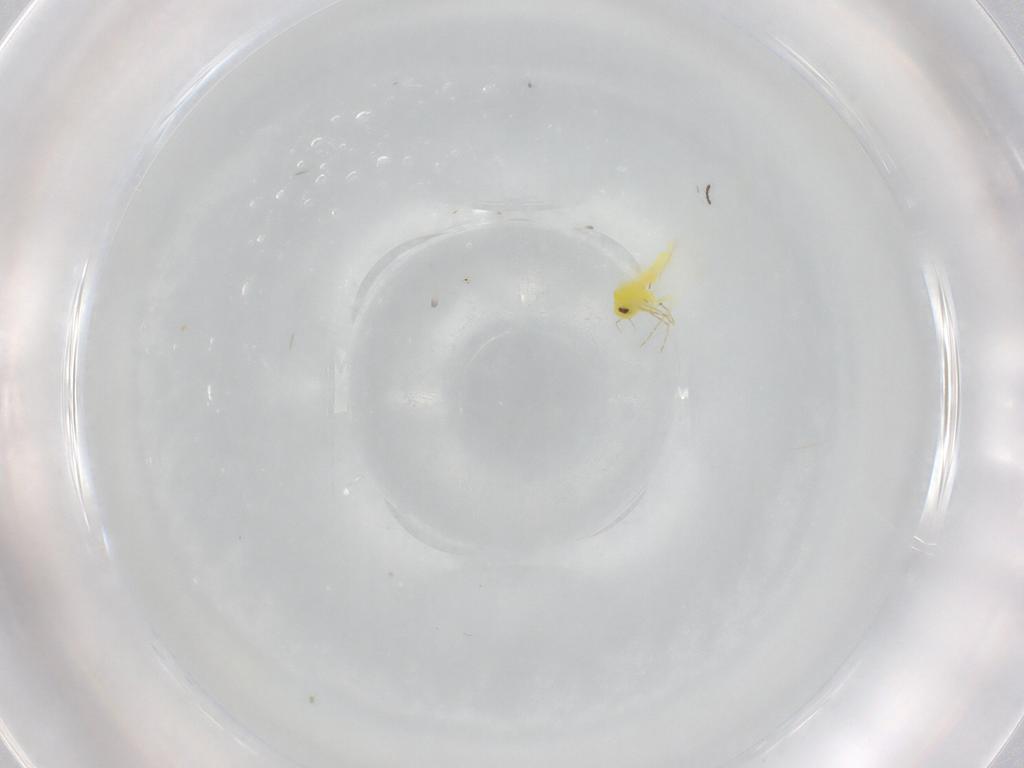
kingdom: Animalia
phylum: Arthropoda
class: Insecta
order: Hemiptera
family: Aleyrodidae
